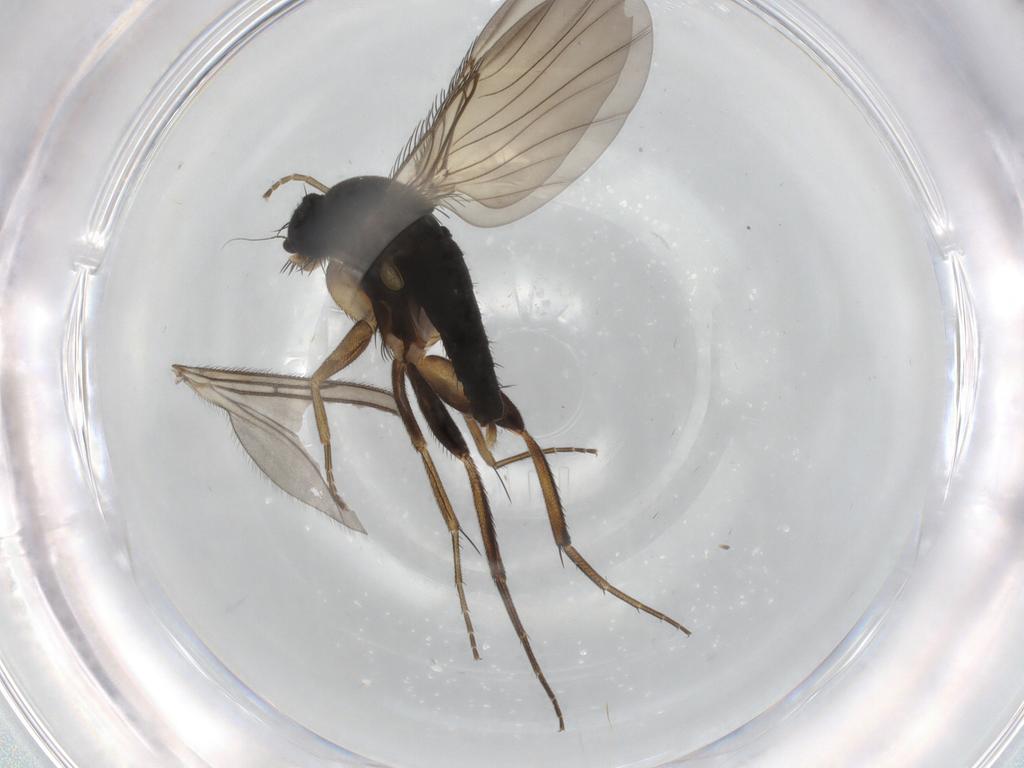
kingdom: Animalia
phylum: Arthropoda
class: Insecta
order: Diptera
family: Phoridae
